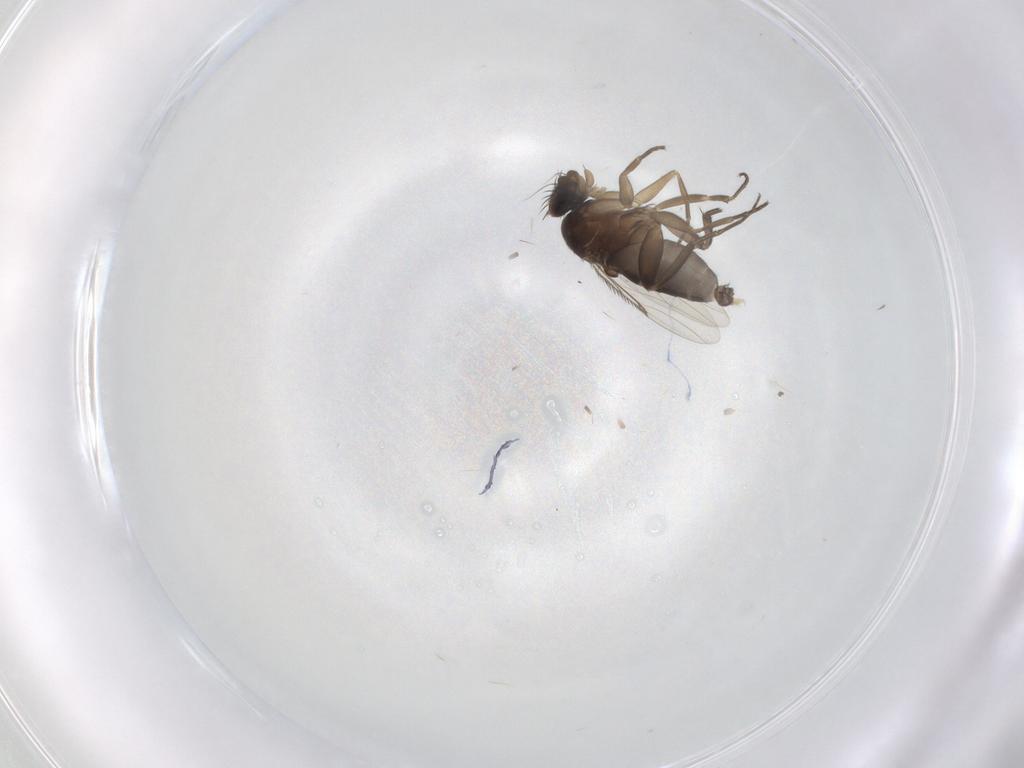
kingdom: Animalia
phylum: Arthropoda
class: Insecta
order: Diptera
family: Phoridae
